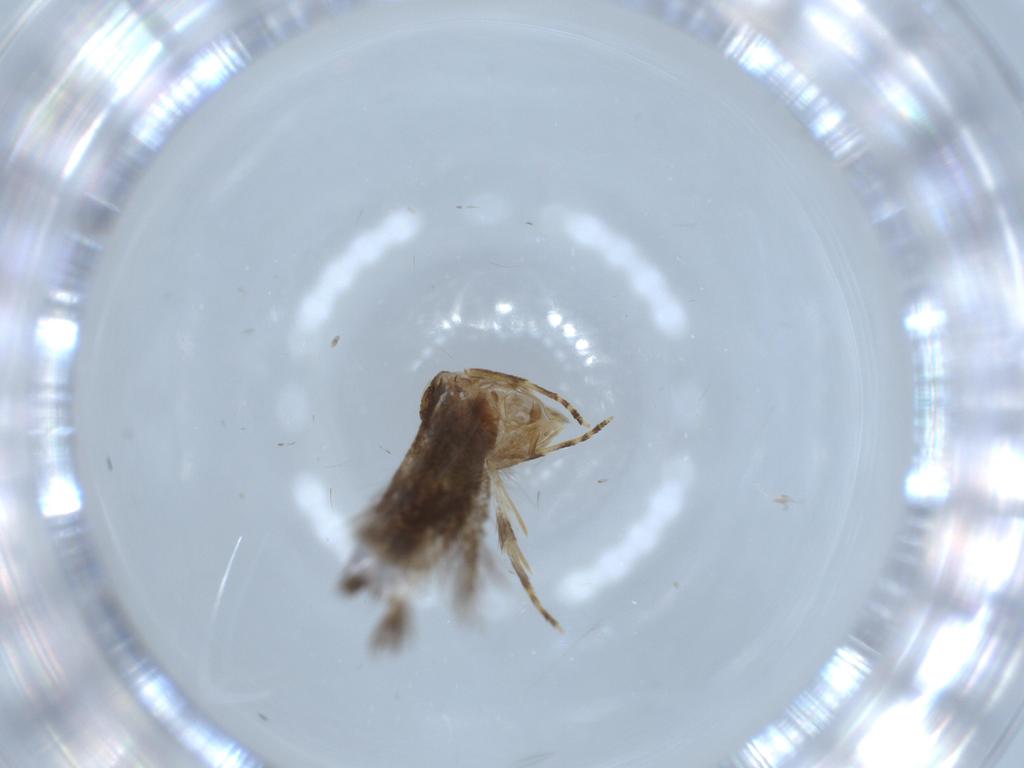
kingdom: Animalia
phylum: Arthropoda
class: Insecta
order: Lepidoptera
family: Gelechiidae
